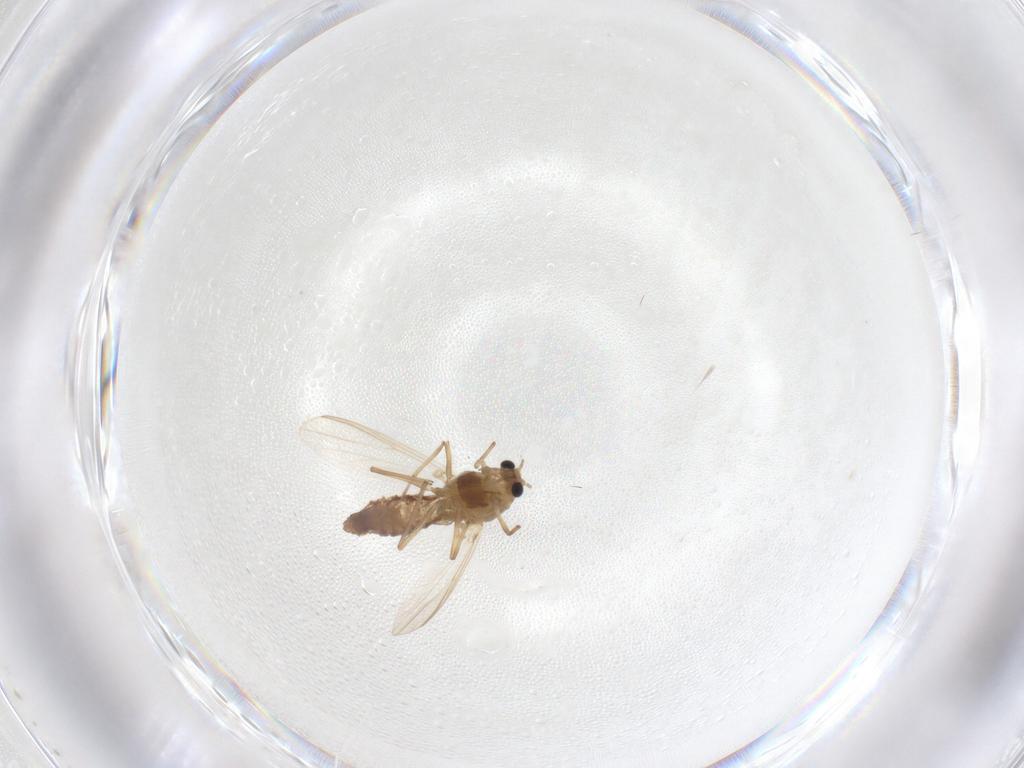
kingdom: Animalia
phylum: Arthropoda
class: Insecta
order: Diptera
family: Chironomidae
